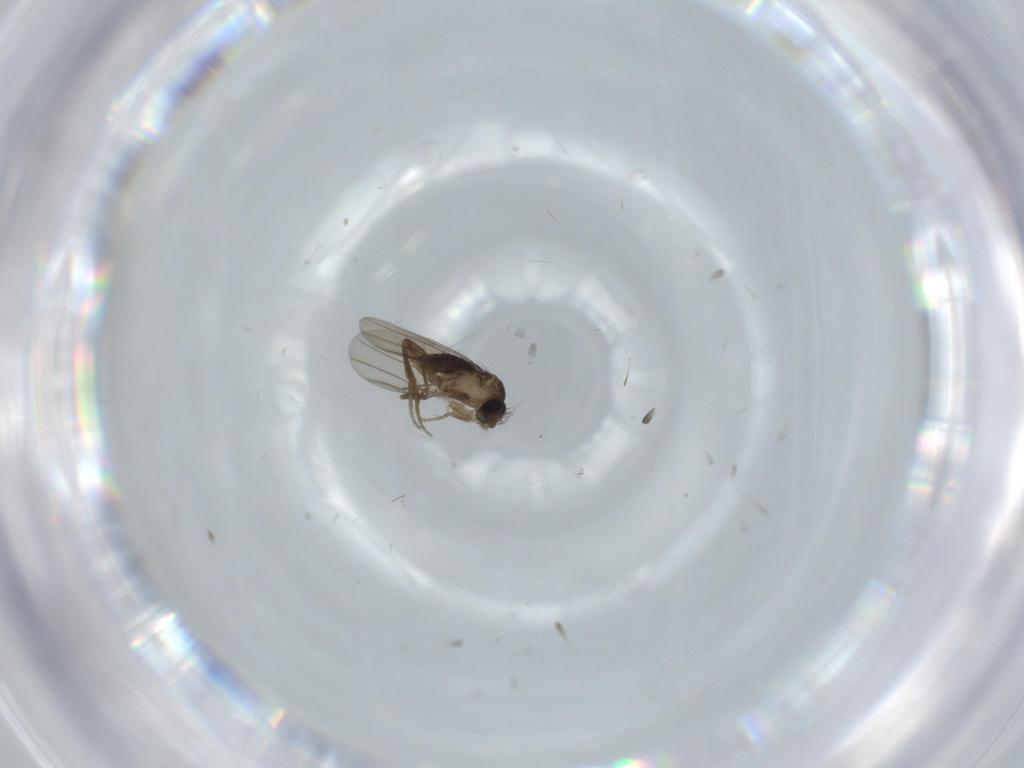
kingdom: Animalia
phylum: Arthropoda
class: Insecta
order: Diptera
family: Phoridae
